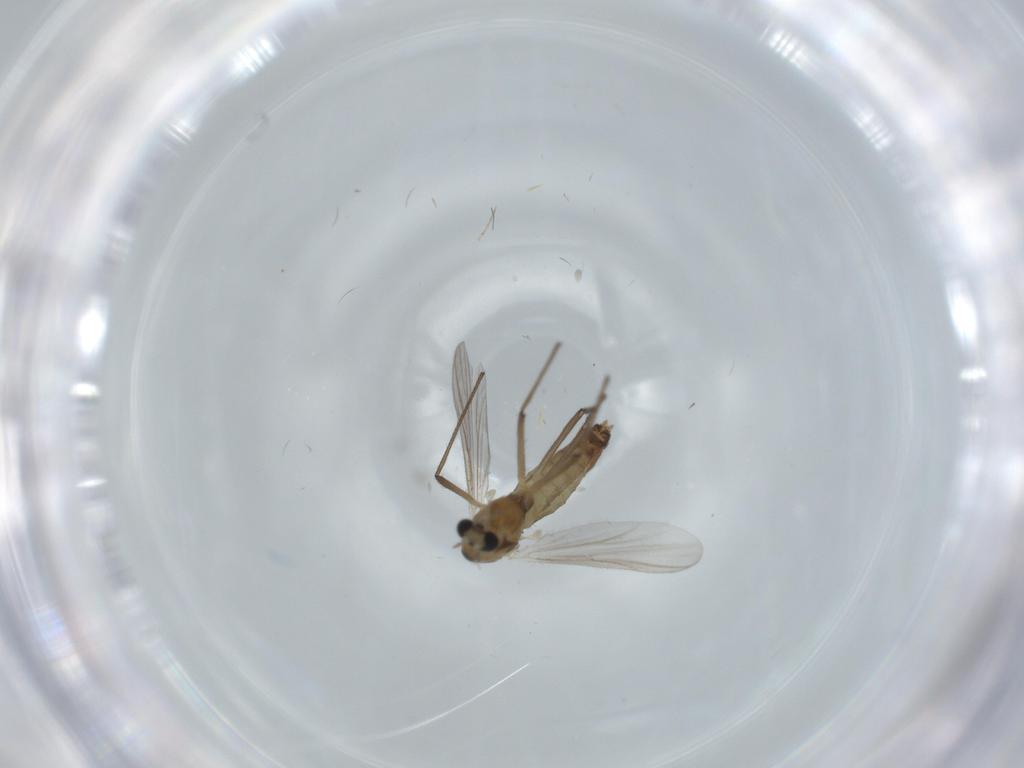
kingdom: Animalia
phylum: Arthropoda
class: Insecta
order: Diptera
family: Chironomidae
